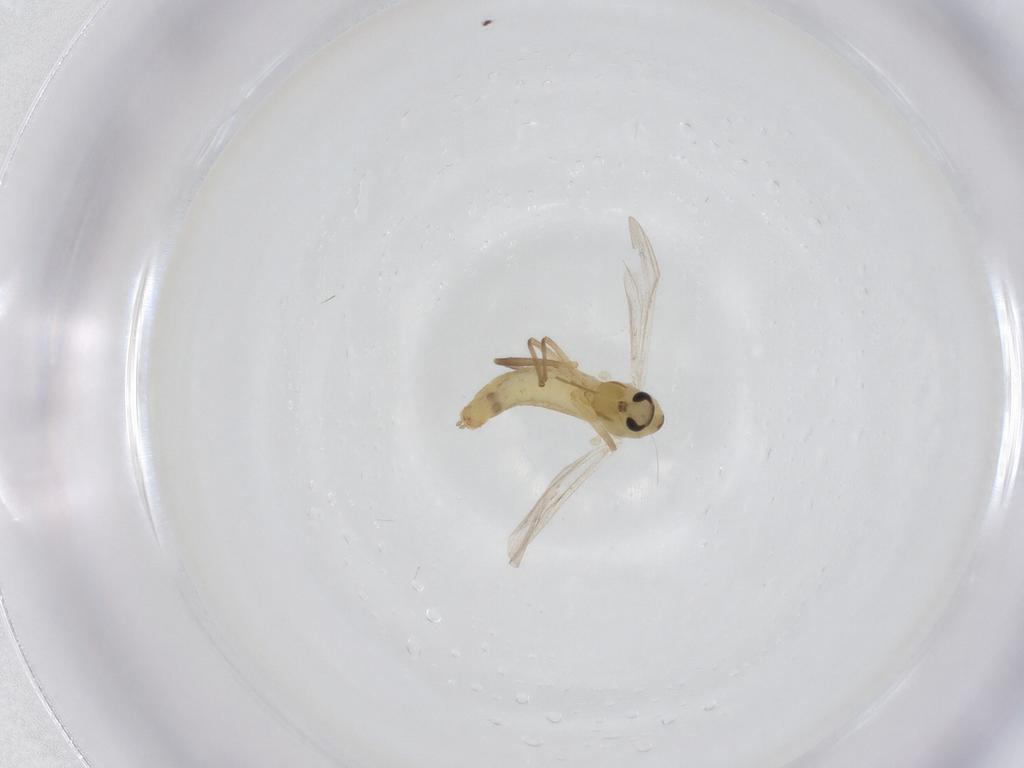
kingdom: Animalia
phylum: Arthropoda
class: Insecta
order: Diptera
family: Chironomidae
